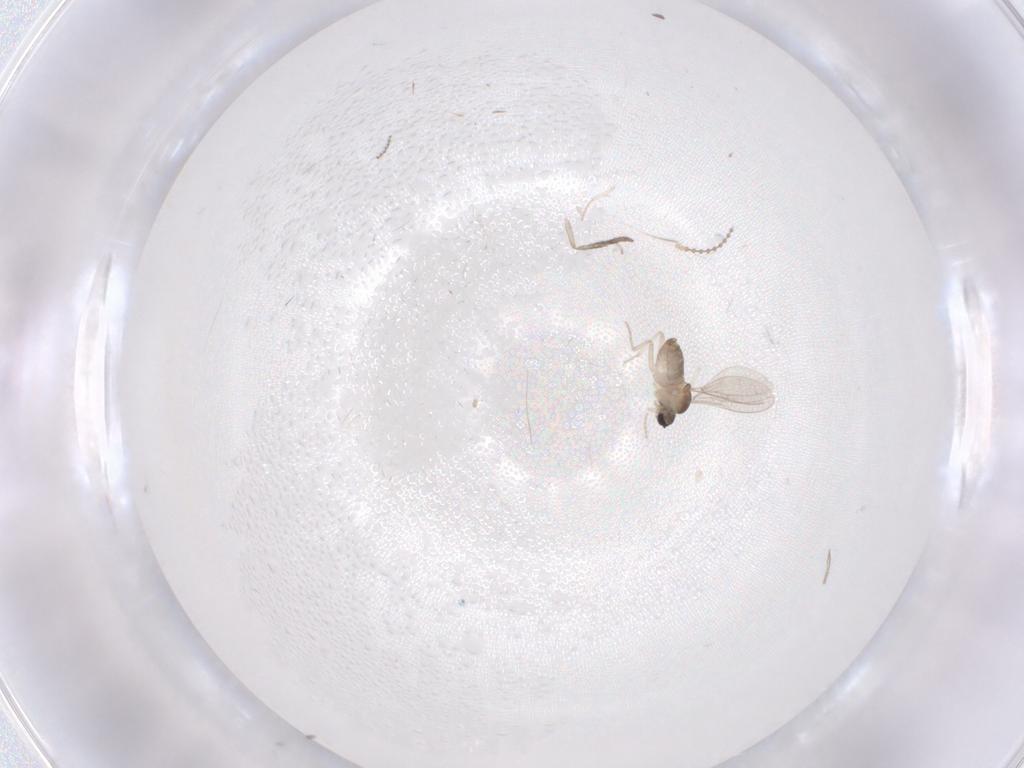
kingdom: Animalia
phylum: Arthropoda
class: Insecta
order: Diptera
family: Cecidomyiidae
